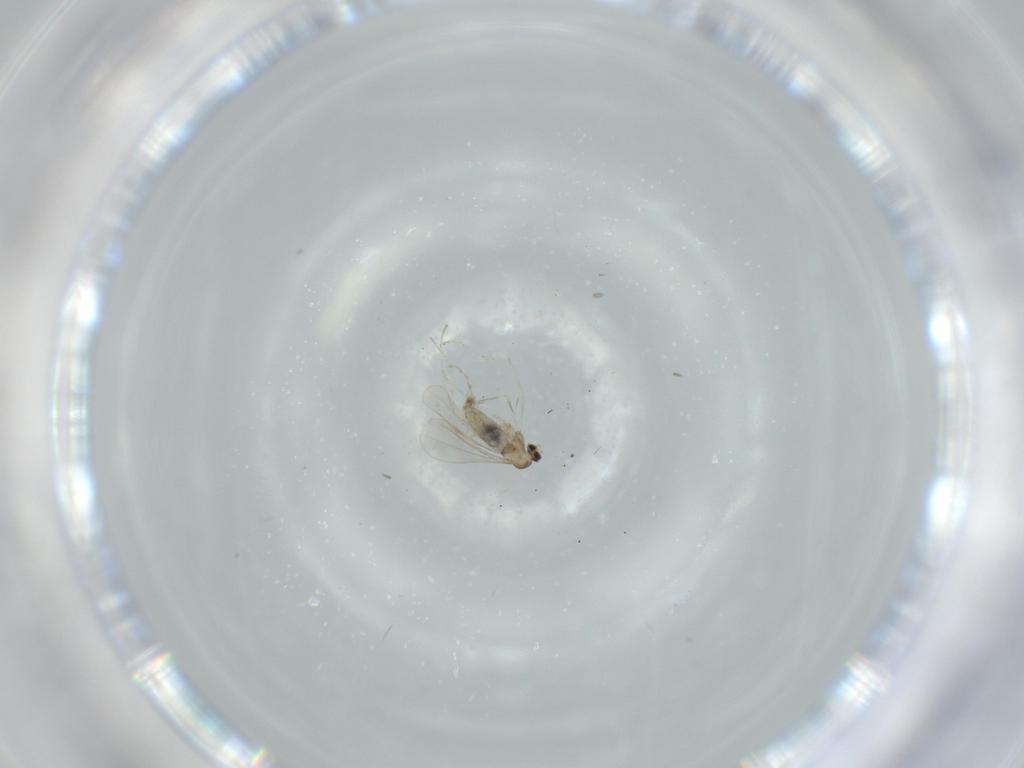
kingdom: Animalia
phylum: Arthropoda
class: Insecta
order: Diptera
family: Cecidomyiidae
